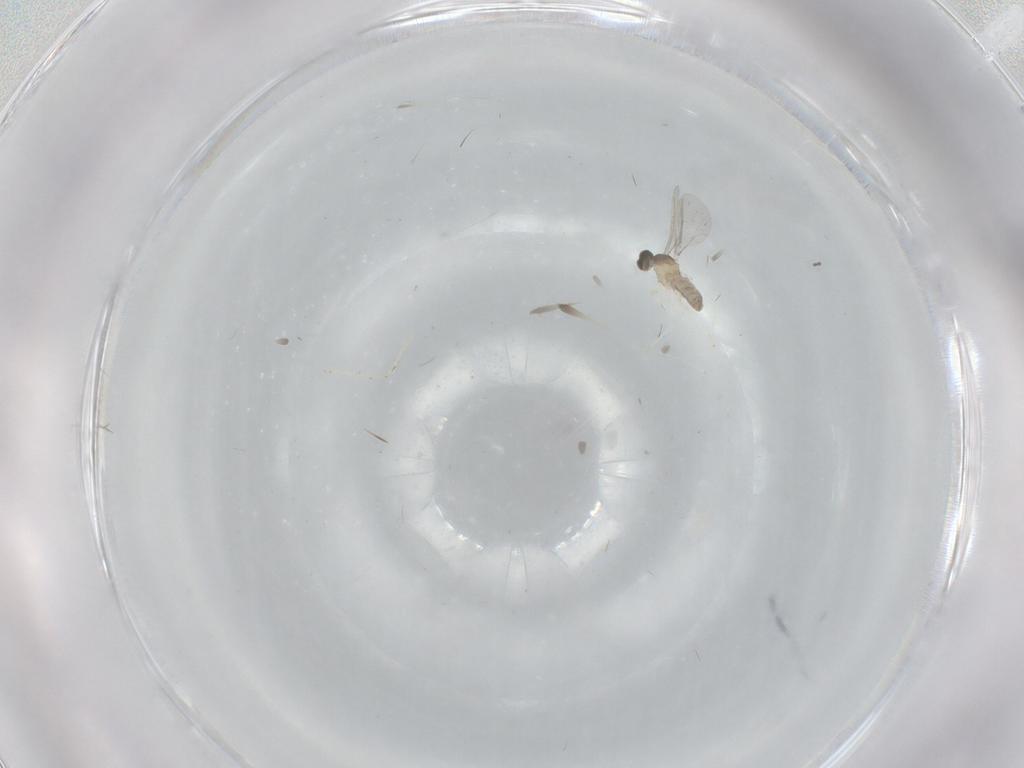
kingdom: Animalia
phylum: Arthropoda
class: Insecta
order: Diptera
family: Cecidomyiidae
